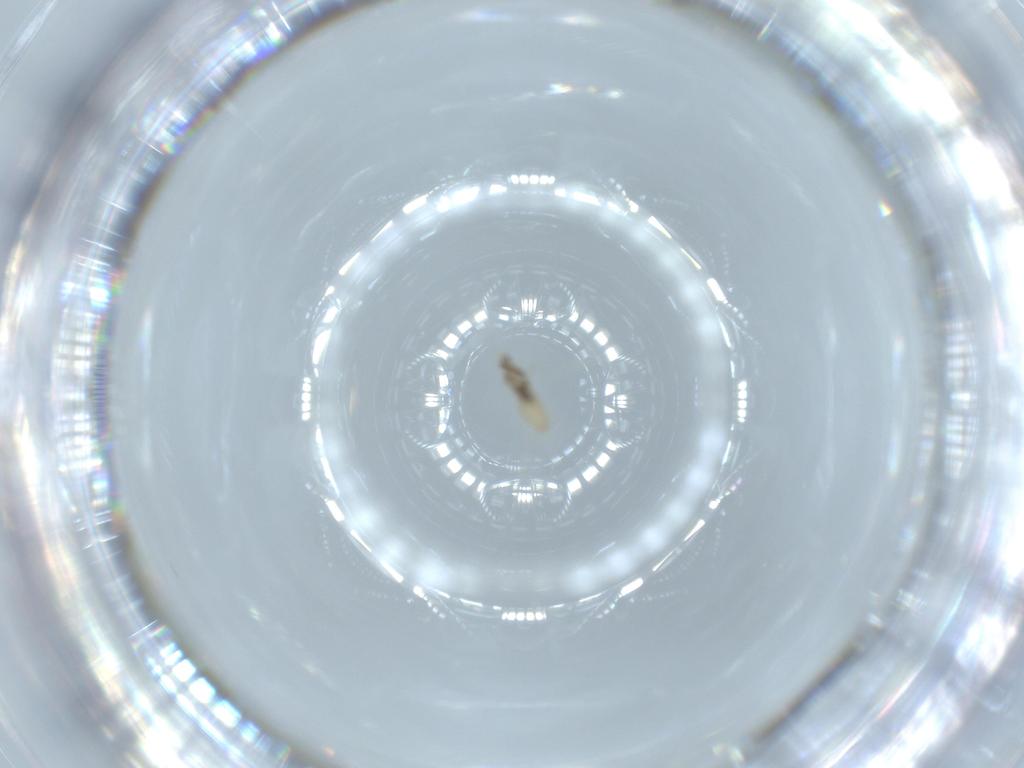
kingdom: Animalia
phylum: Arthropoda
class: Insecta
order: Diptera
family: Cecidomyiidae
